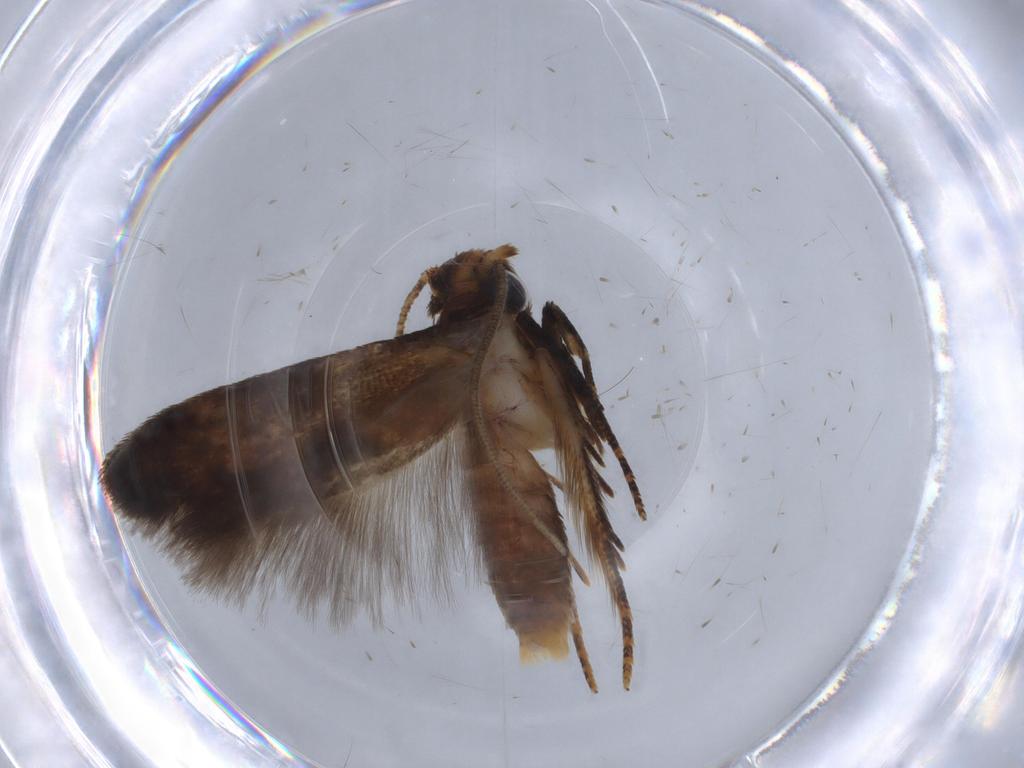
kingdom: Animalia
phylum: Arthropoda
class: Insecta
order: Lepidoptera
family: Blastobasidae
